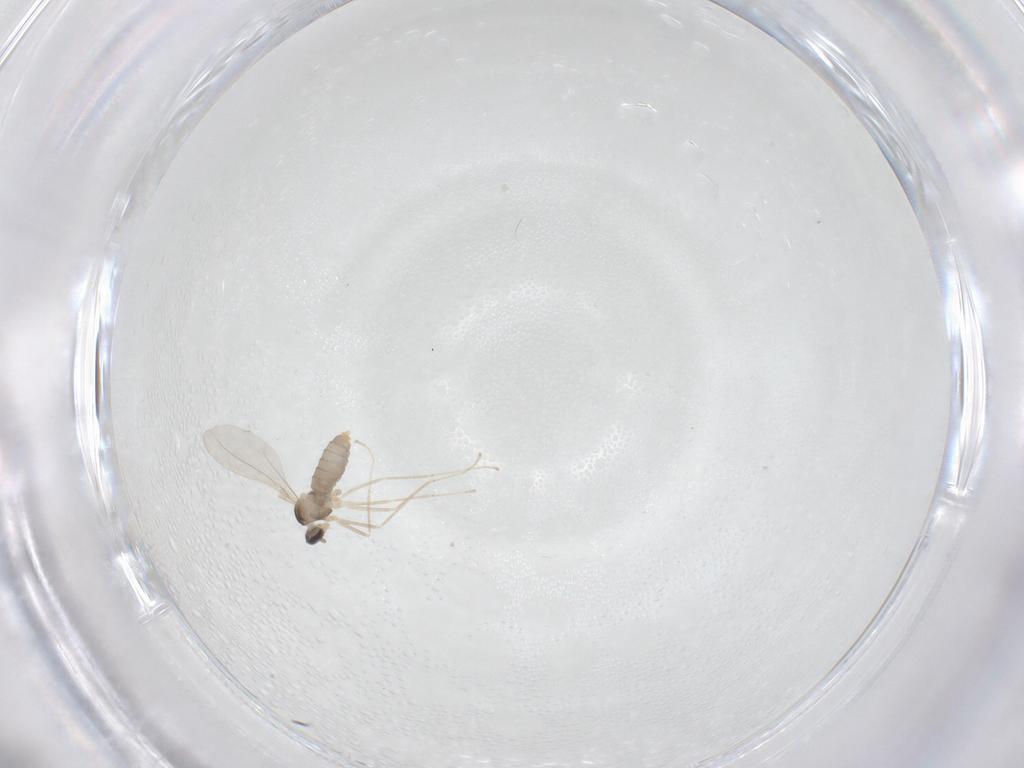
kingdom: Animalia
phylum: Arthropoda
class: Insecta
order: Diptera
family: Cecidomyiidae
